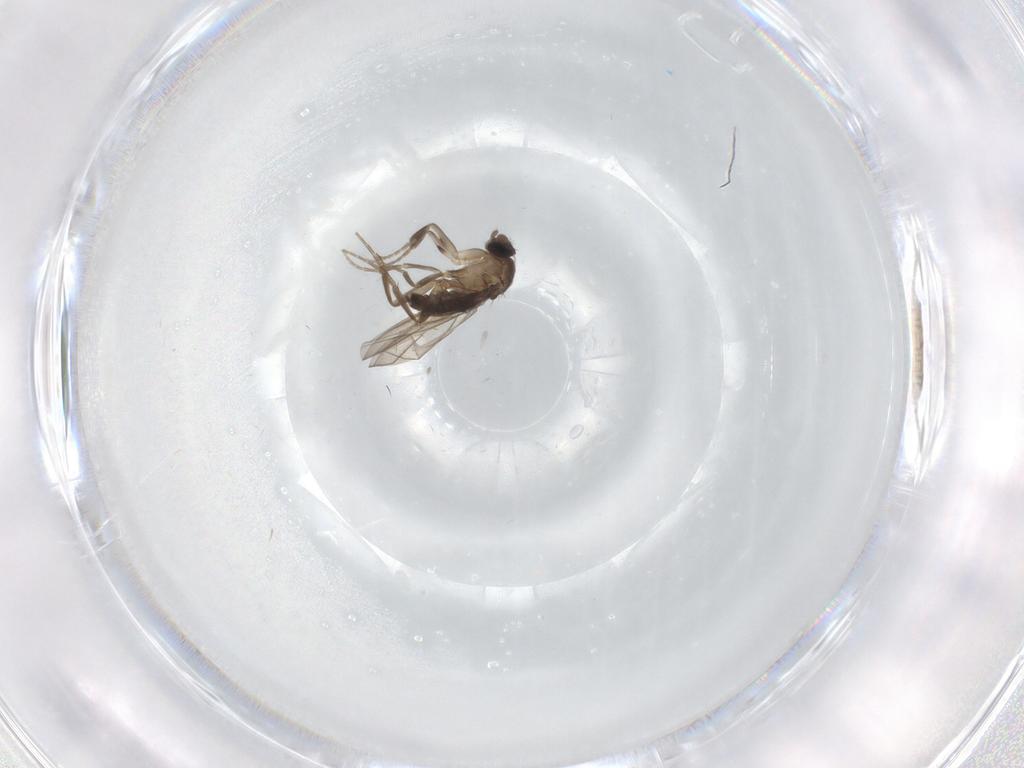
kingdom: Animalia
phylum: Arthropoda
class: Insecta
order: Diptera
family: Phoridae
